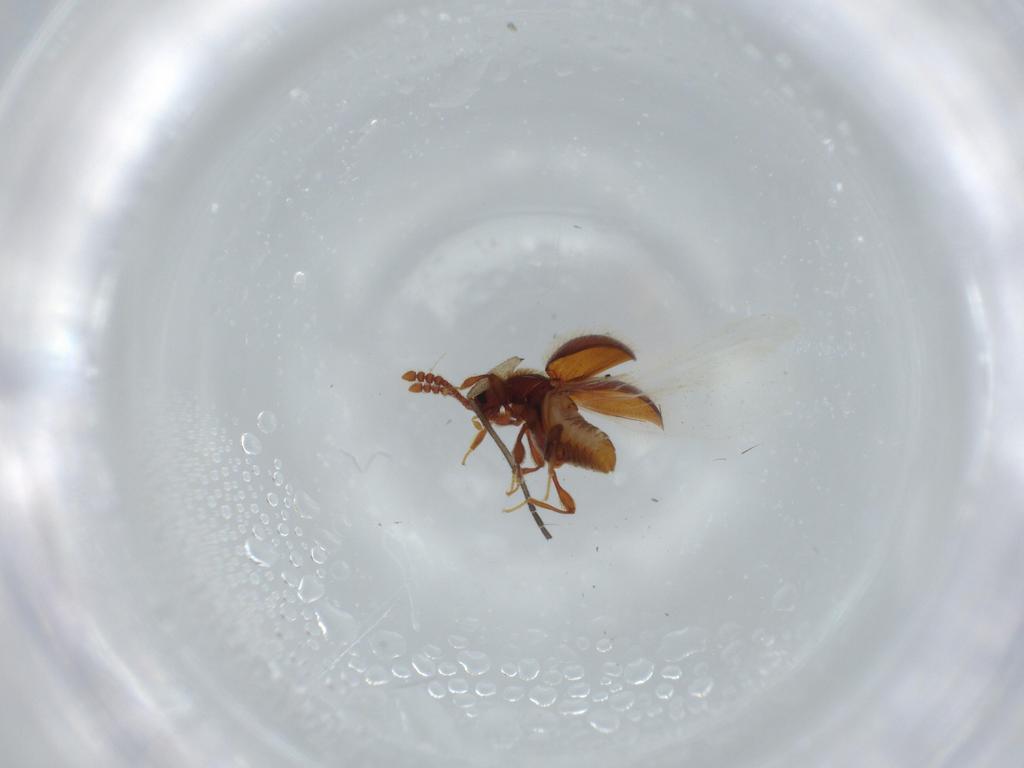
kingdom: Animalia
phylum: Arthropoda
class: Insecta
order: Coleoptera
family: Staphylinidae
